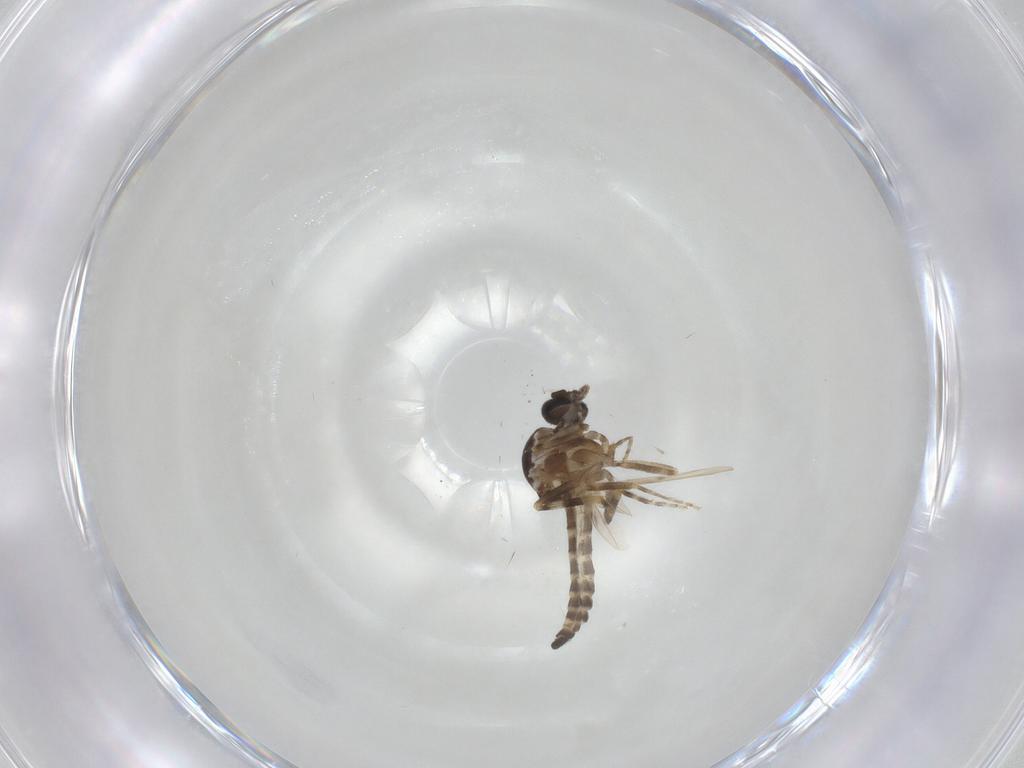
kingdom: Animalia
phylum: Arthropoda
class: Insecta
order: Diptera
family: Ceratopogonidae
